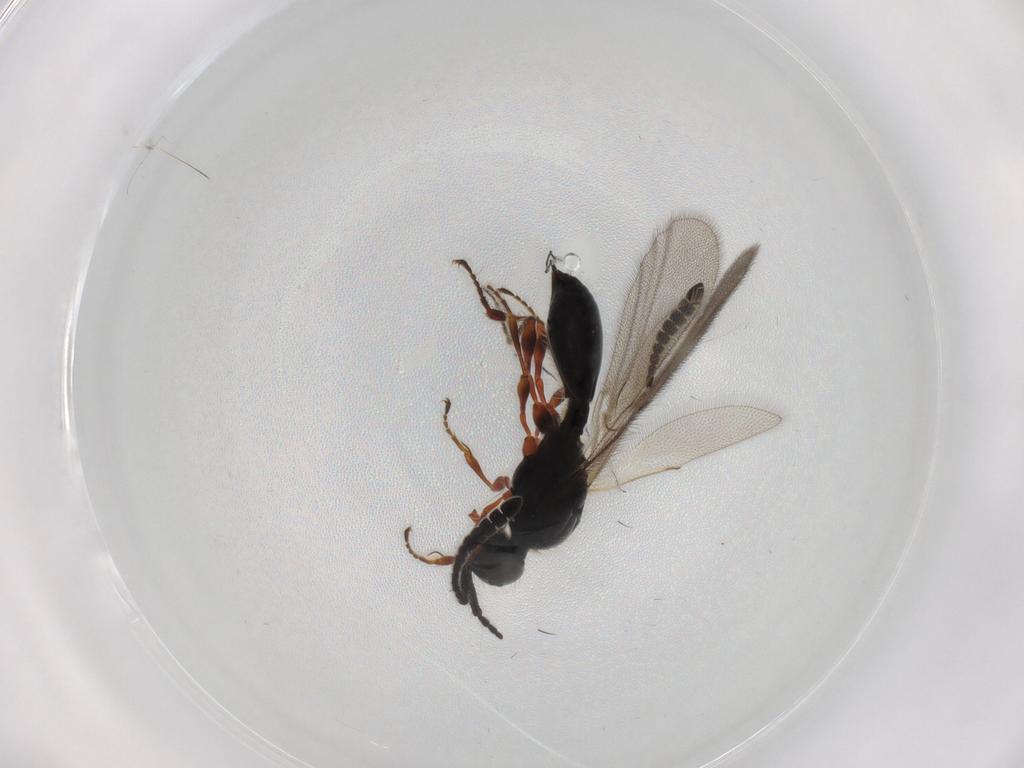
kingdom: Animalia
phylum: Arthropoda
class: Insecta
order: Hymenoptera
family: Diapriidae
